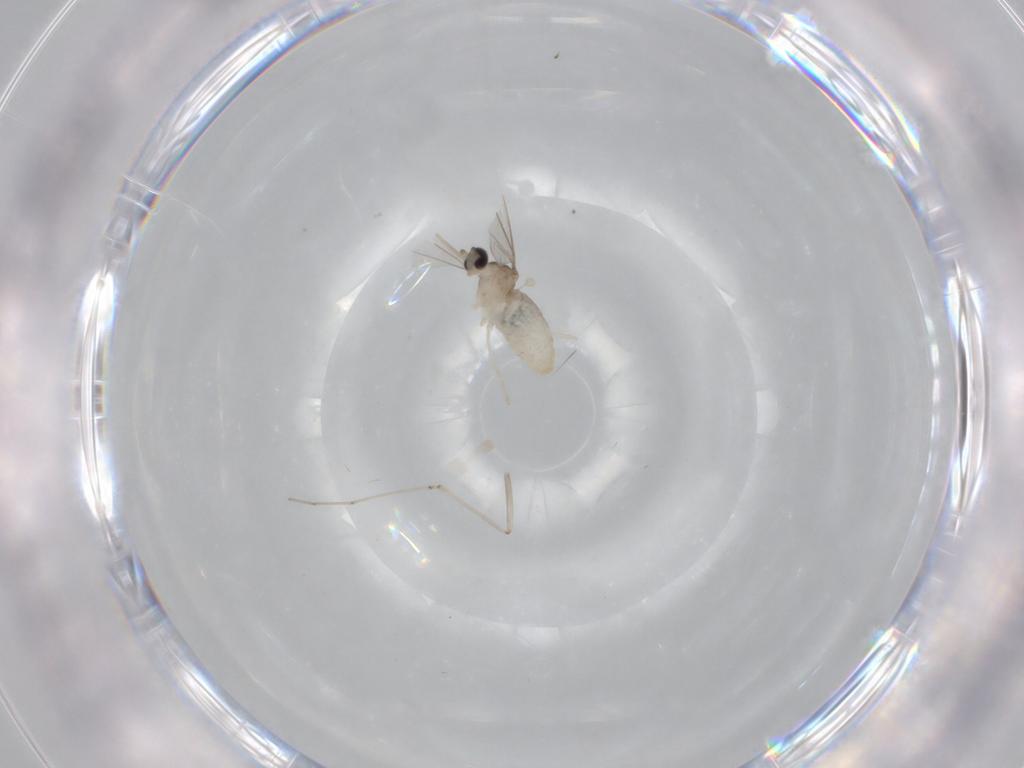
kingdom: Animalia
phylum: Arthropoda
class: Insecta
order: Diptera
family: Cecidomyiidae
